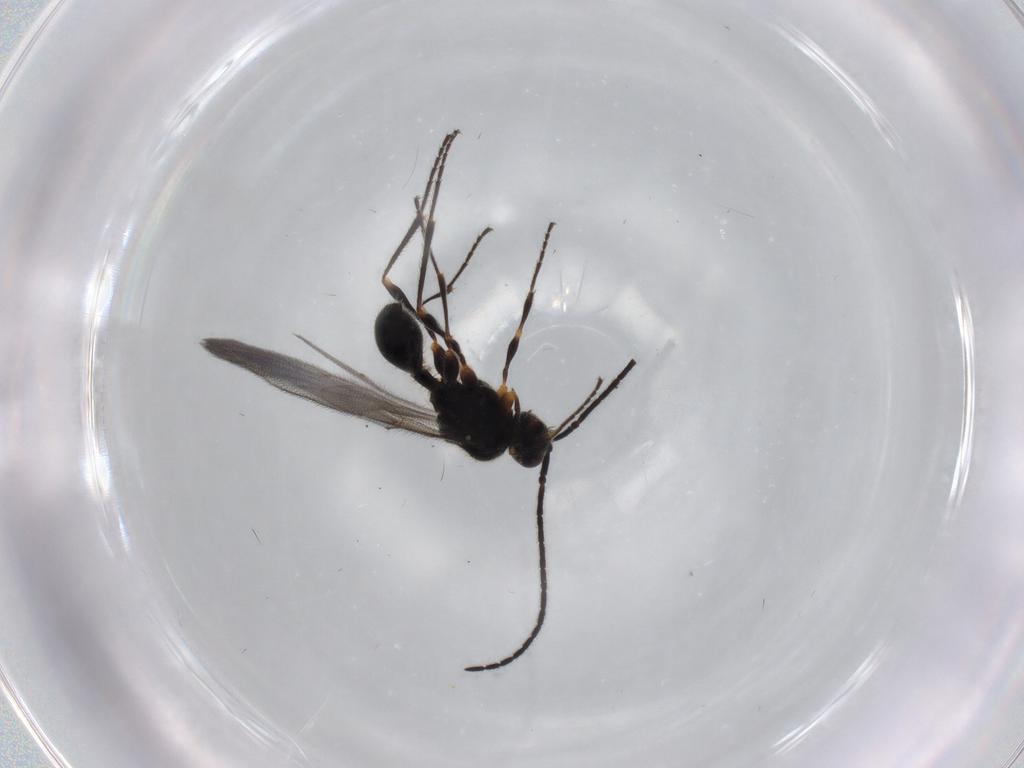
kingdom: Animalia
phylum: Arthropoda
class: Insecta
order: Hymenoptera
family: Diapriidae
